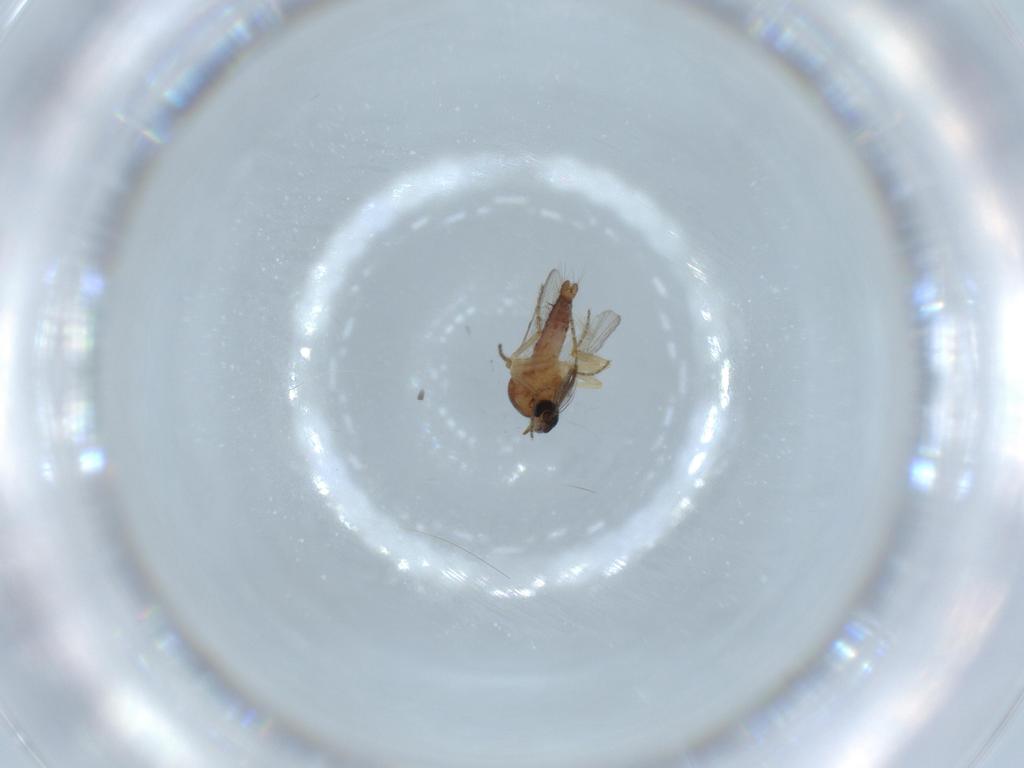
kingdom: Animalia
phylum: Arthropoda
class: Insecta
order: Diptera
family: Ceratopogonidae
